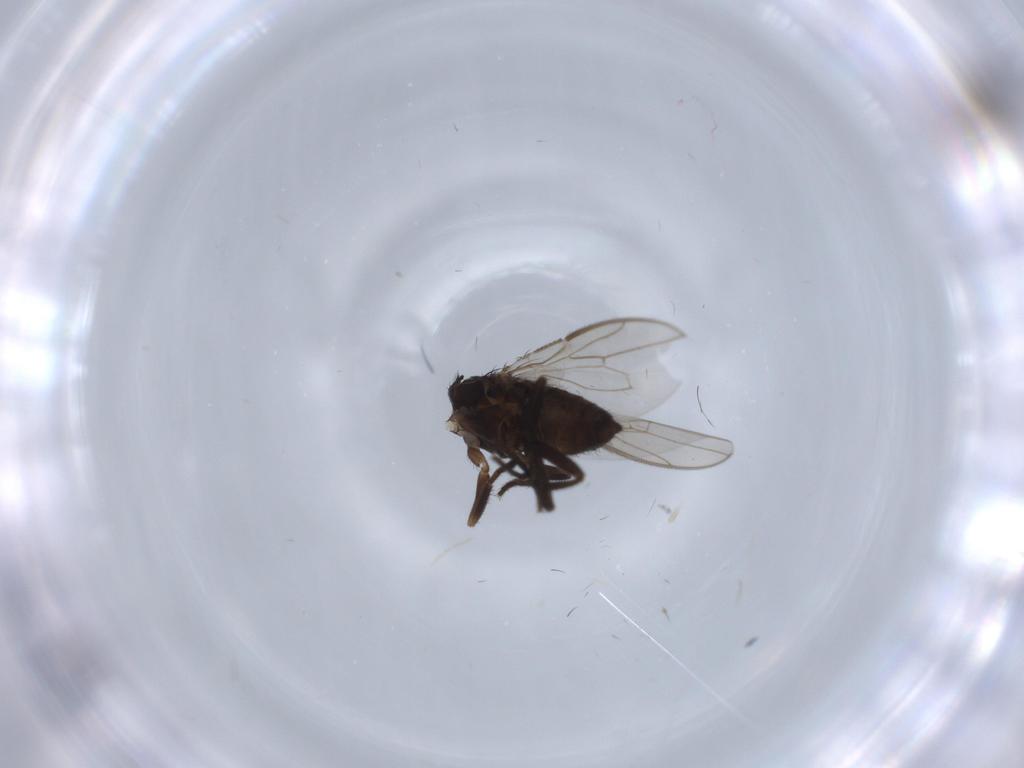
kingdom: Animalia
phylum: Arthropoda
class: Insecta
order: Diptera
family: Sphaeroceridae
